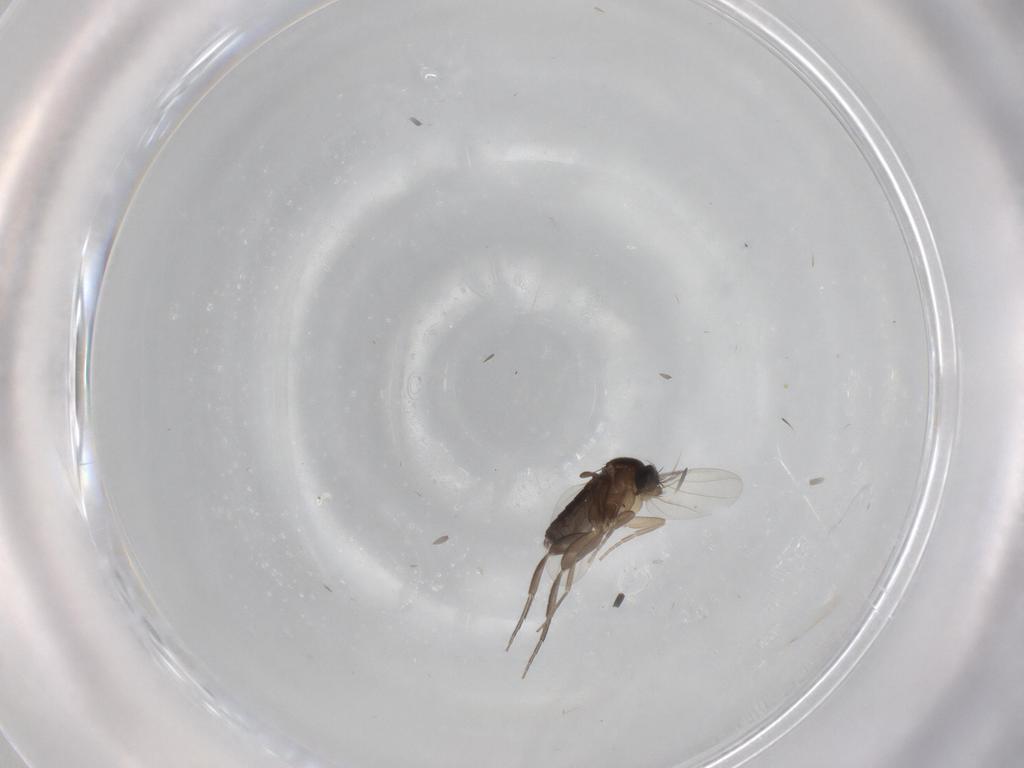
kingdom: Animalia
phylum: Arthropoda
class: Insecta
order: Diptera
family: Phoridae
